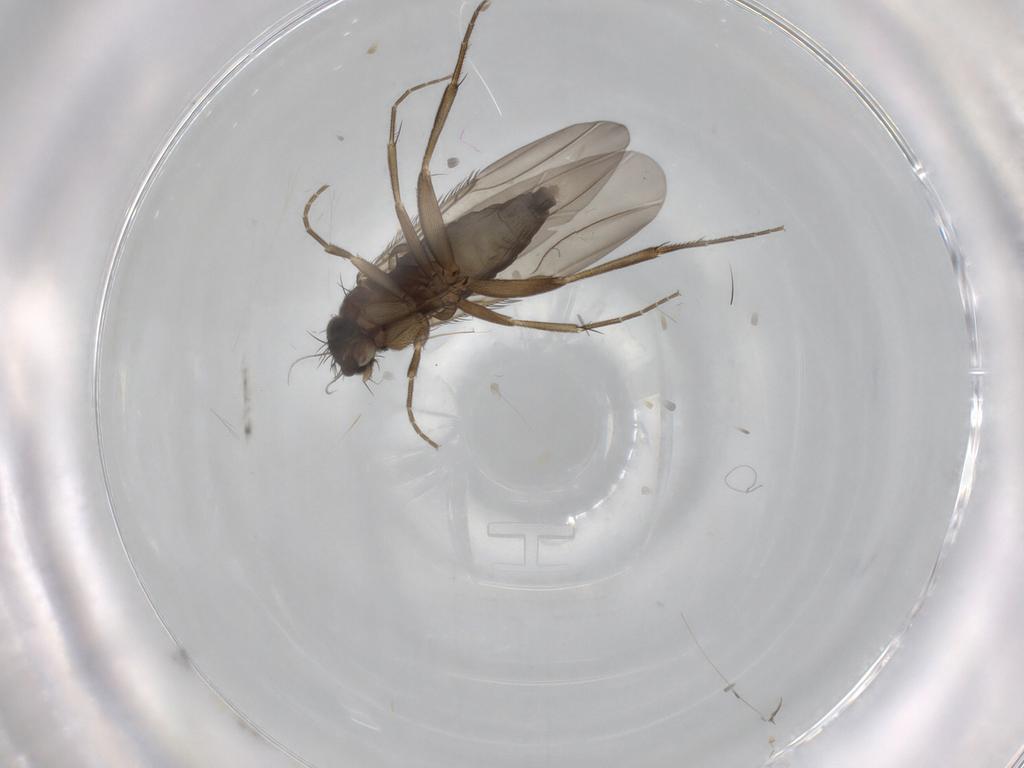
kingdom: Animalia
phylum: Arthropoda
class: Insecta
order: Diptera
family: Phoridae
